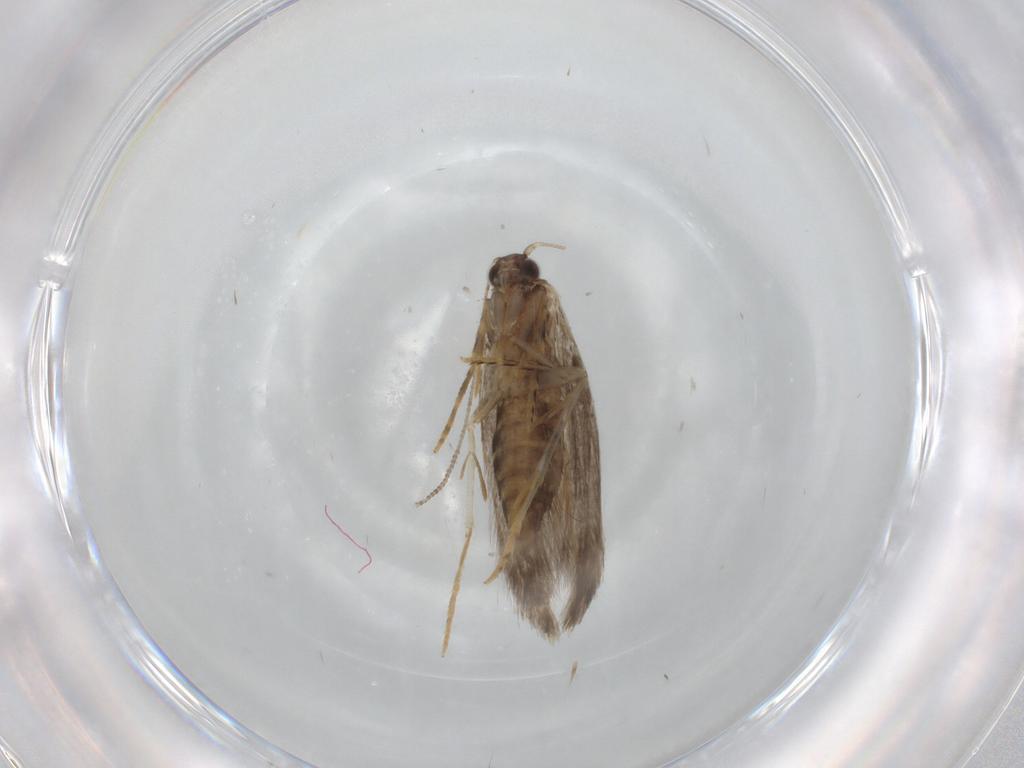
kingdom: Animalia
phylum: Arthropoda
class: Insecta
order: Lepidoptera
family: Tineidae
